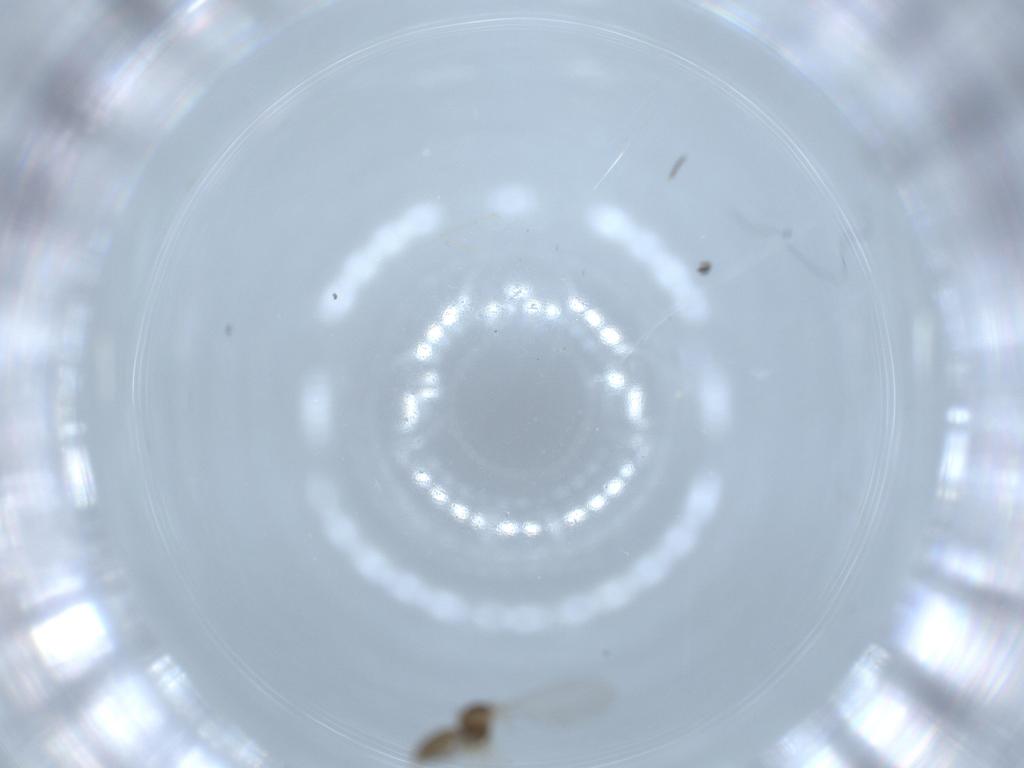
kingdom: Animalia
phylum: Arthropoda
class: Insecta
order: Diptera
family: Cecidomyiidae
